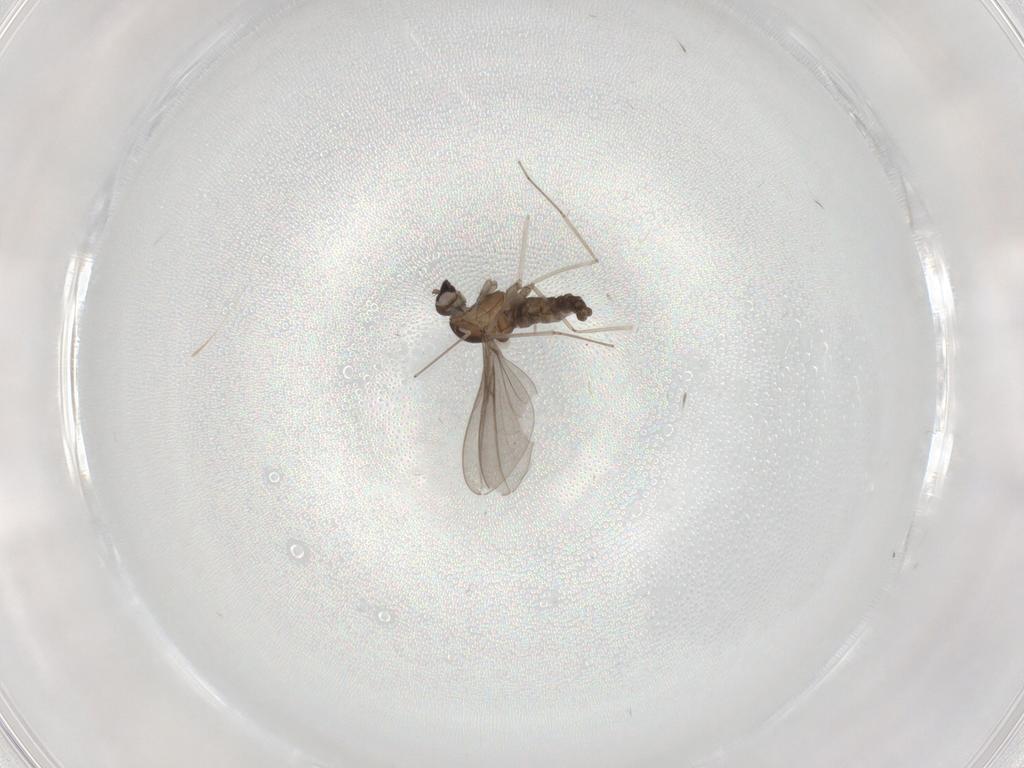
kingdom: Animalia
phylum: Arthropoda
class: Insecta
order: Diptera
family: Cecidomyiidae
